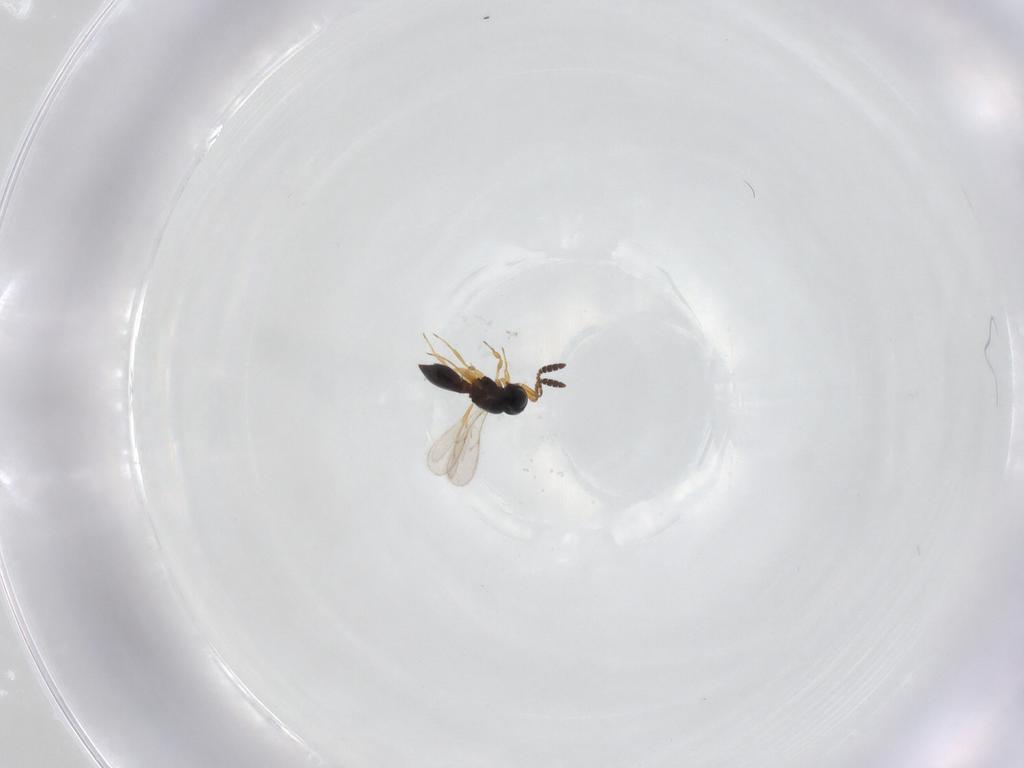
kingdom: Animalia
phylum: Arthropoda
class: Insecta
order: Hymenoptera
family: Scelionidae
